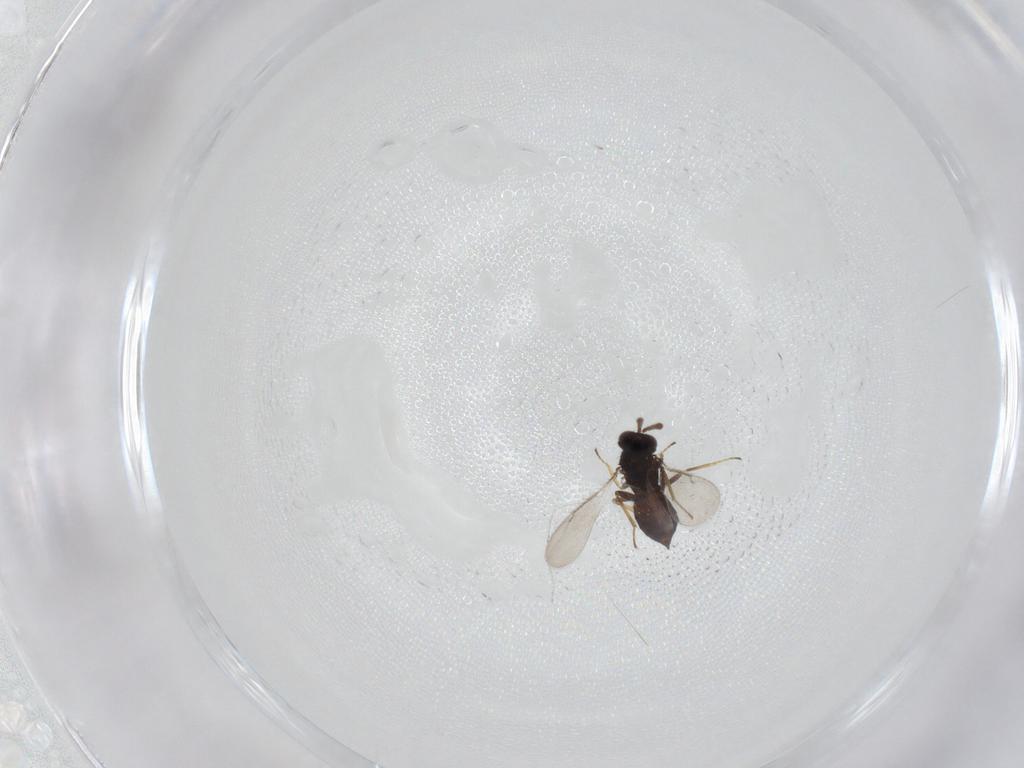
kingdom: Animalia
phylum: Arthropoda
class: Insecta
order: Hymenoptera
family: Eulophidae
